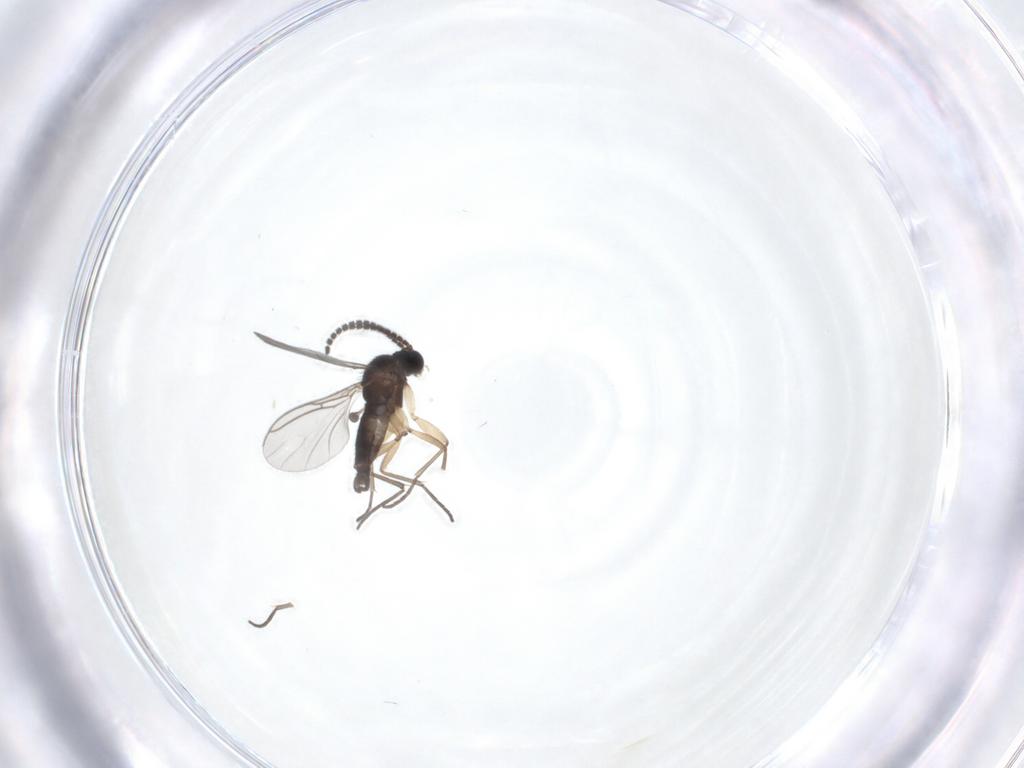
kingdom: Animalia
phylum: Arthropoda
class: Insecta
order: Diptera
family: Sciaridae
